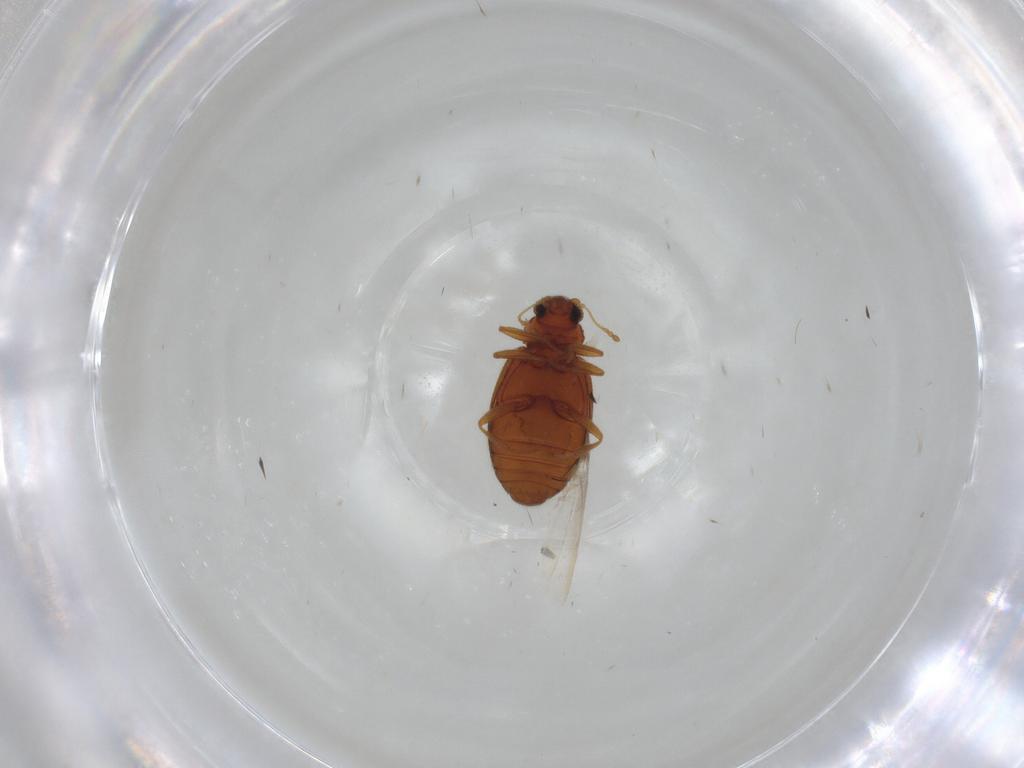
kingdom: Animalia
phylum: Arthropoda
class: Insecta
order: Coleoptera
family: Latridiidae
